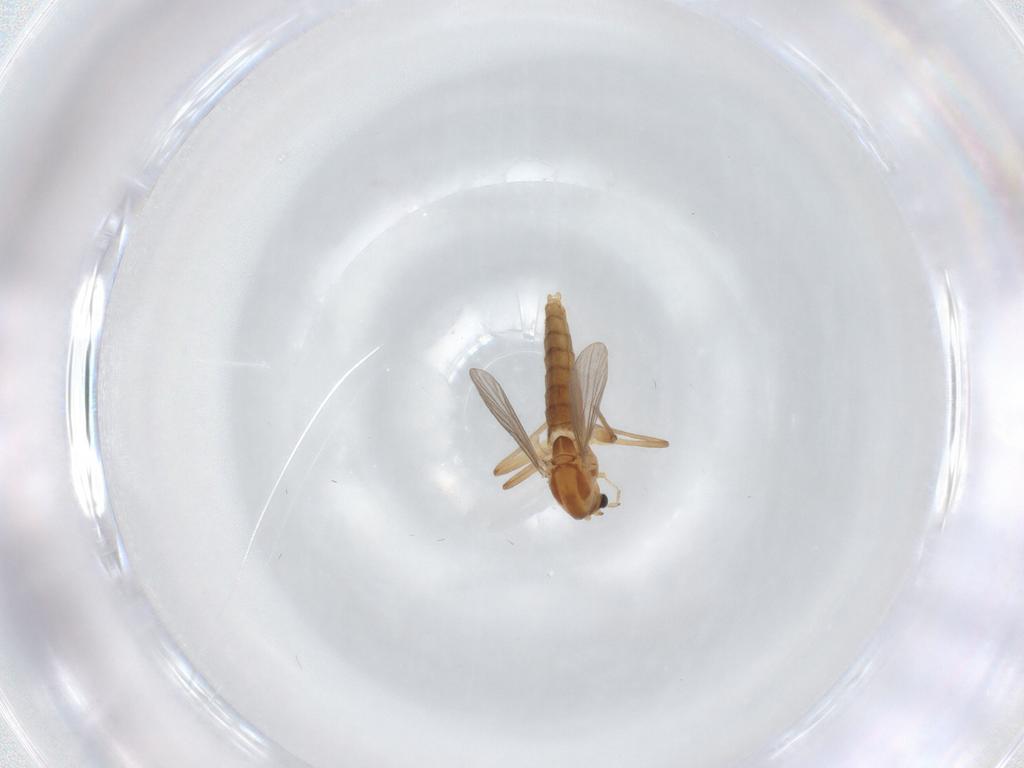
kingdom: Animalia
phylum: Arthropoda
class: Insecta
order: Diptera
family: Chironomidae
